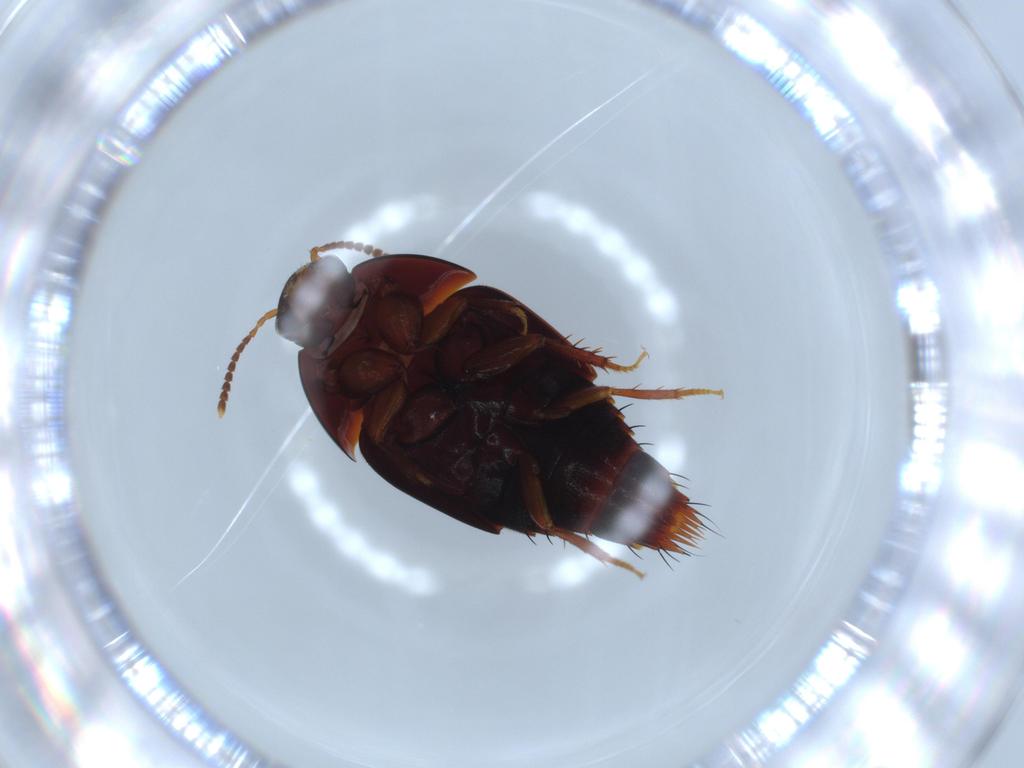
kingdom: Animalia
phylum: Arthropoda
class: Insecta
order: Coleoptera
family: Staphylinidae
